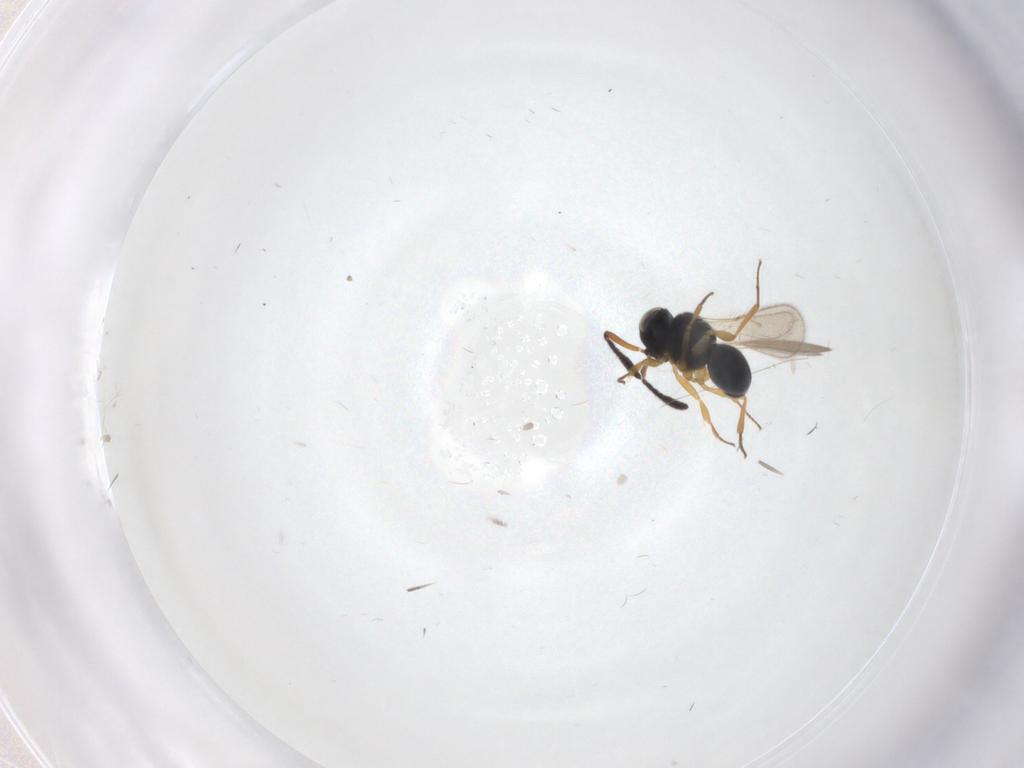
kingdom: Animalia
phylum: Arthropoda
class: Insecta
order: Hymenoptera
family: Scelionidae
